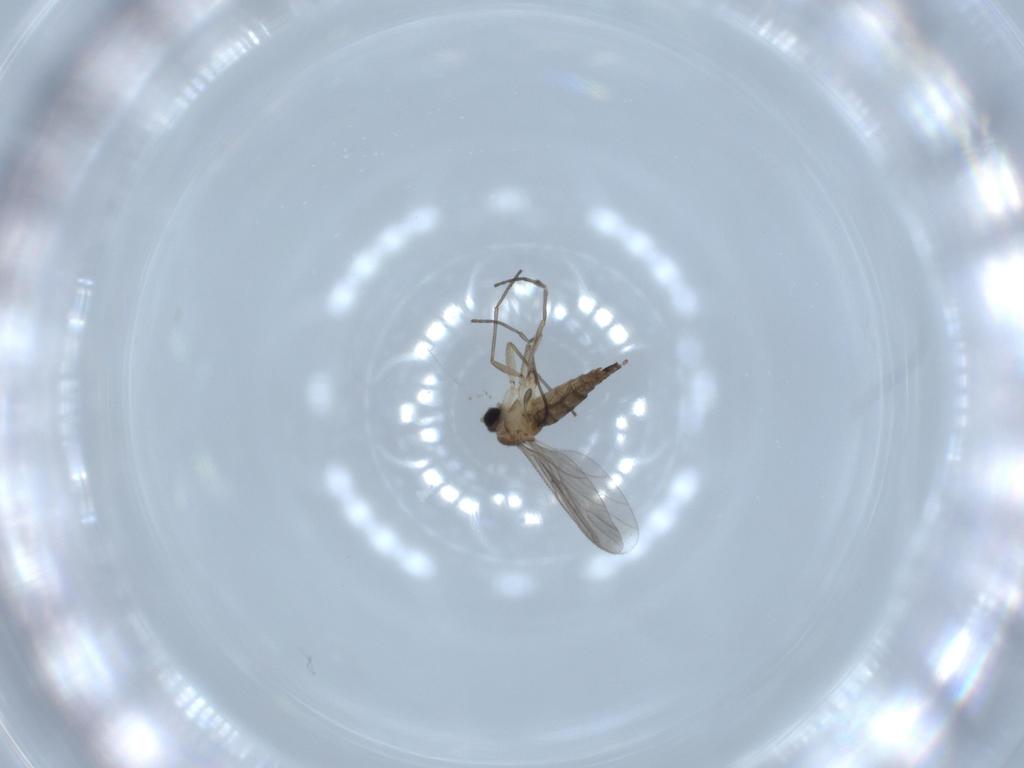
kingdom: Animalia
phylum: Arthropoda
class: Insecta
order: Diptera
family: Sciaridae
